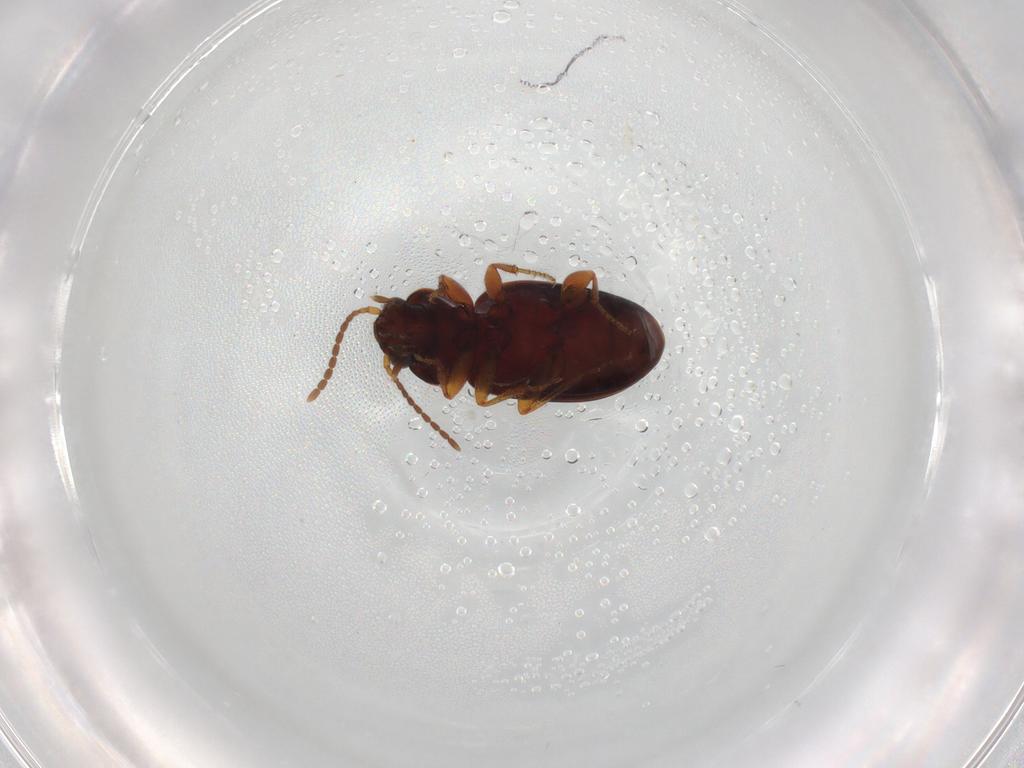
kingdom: Animalia
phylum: Arthropoda
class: Insecta
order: Coleoptera
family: Carabidae
